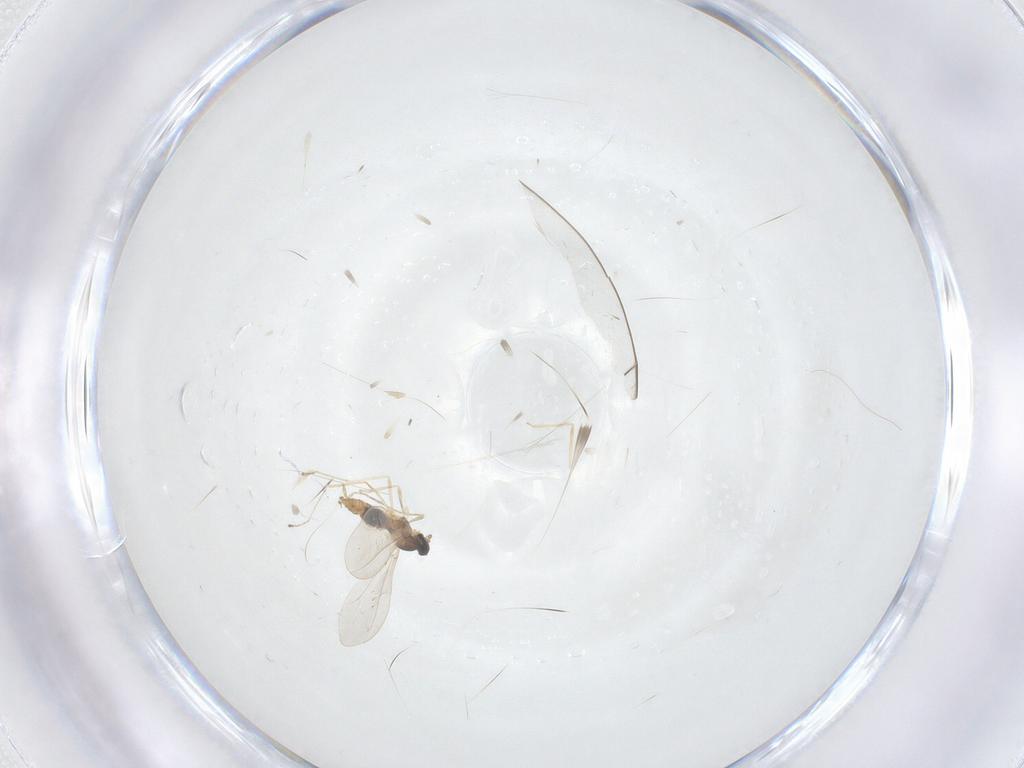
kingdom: Animalia
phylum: Arthropoda
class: Insecta
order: Diptera
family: Cecidomyiidae
